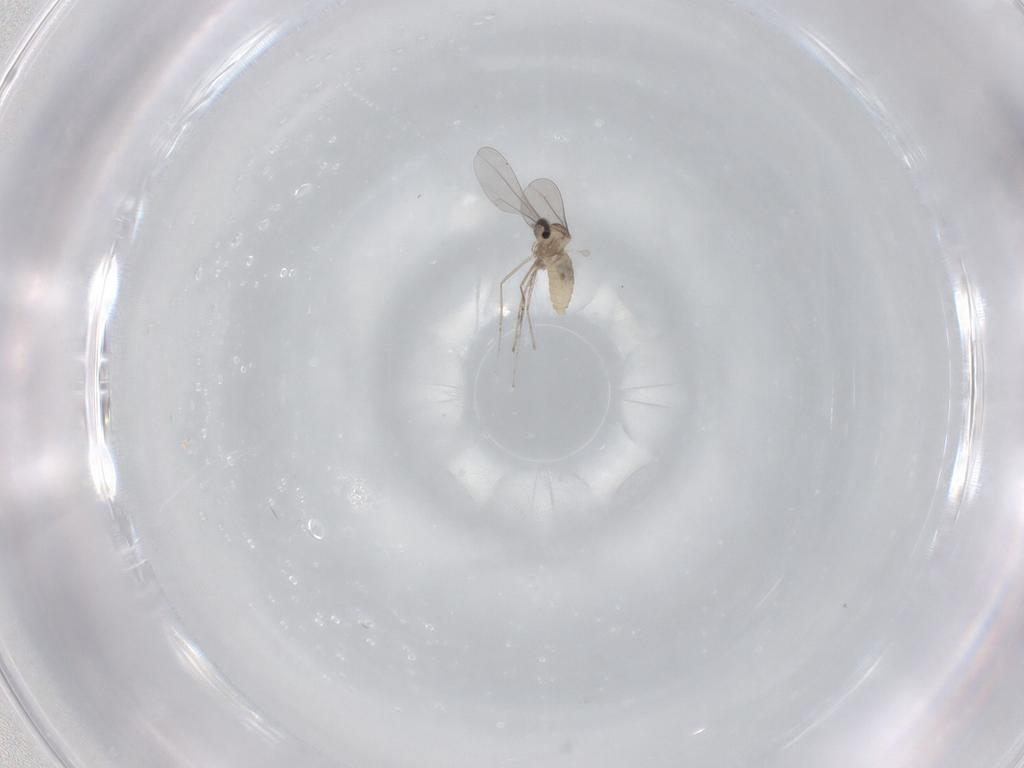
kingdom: Animalia
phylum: Arthropoda
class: Insecta
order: Diptera
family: Cecidomyiidae
